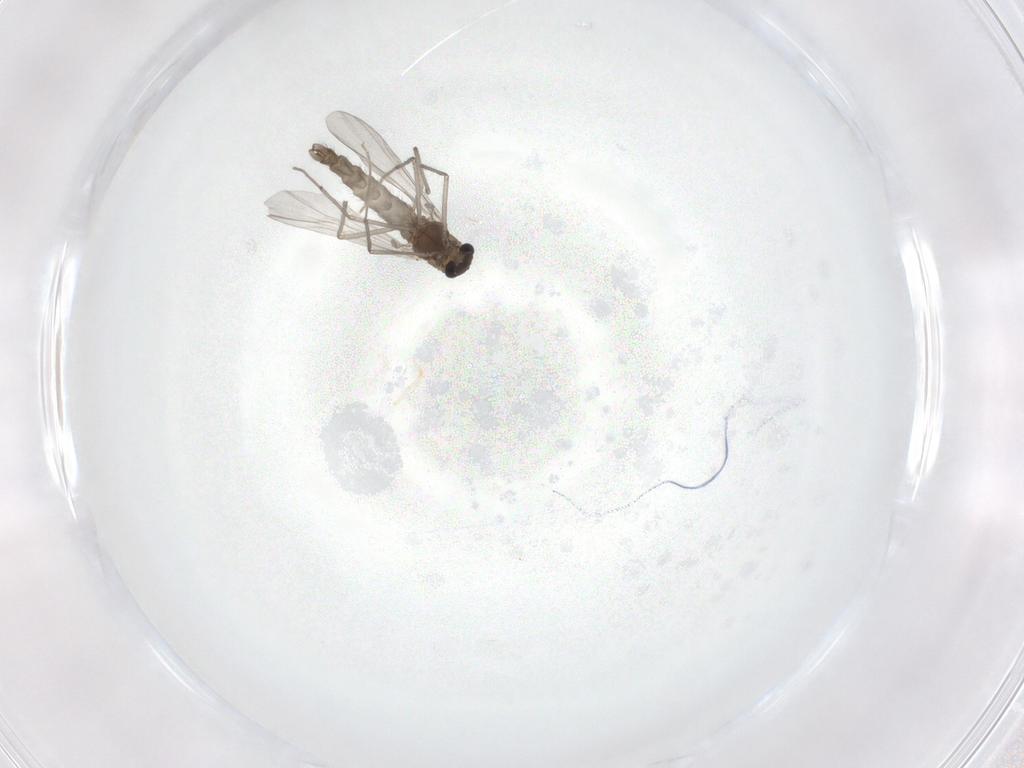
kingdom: Animalia
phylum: Arthropoda
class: Insecta
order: Diptera
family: Chironomidae
